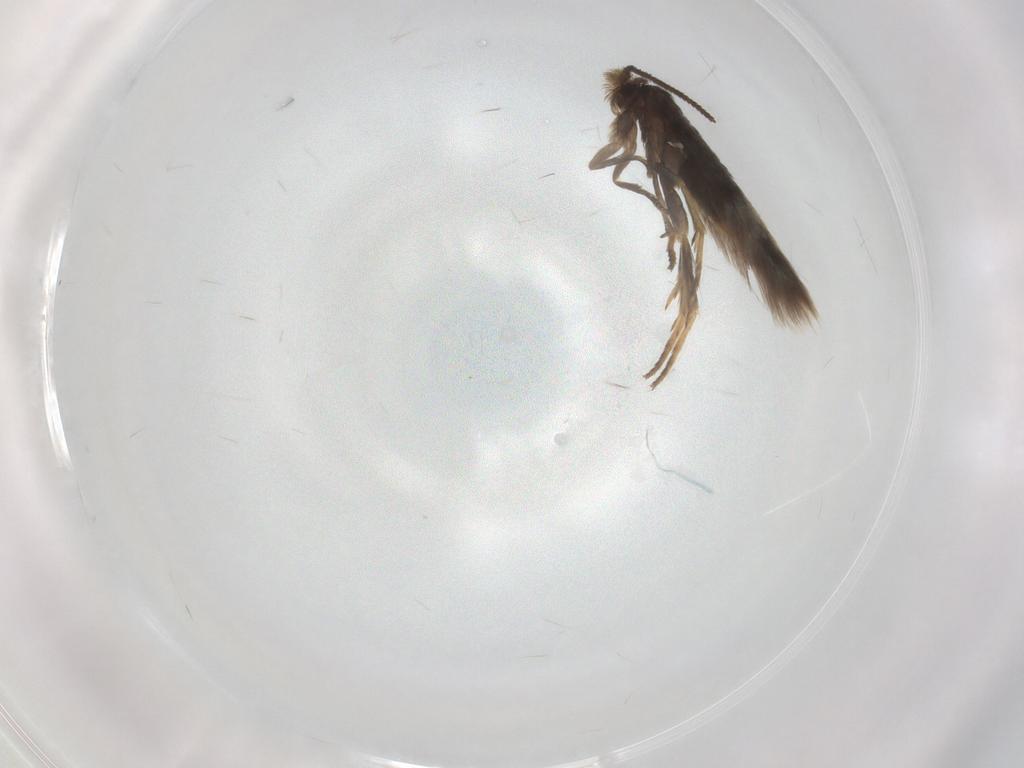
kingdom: Animalia
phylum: Arthropoda
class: Insecta
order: Lepidoptera
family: Nepticulidae
